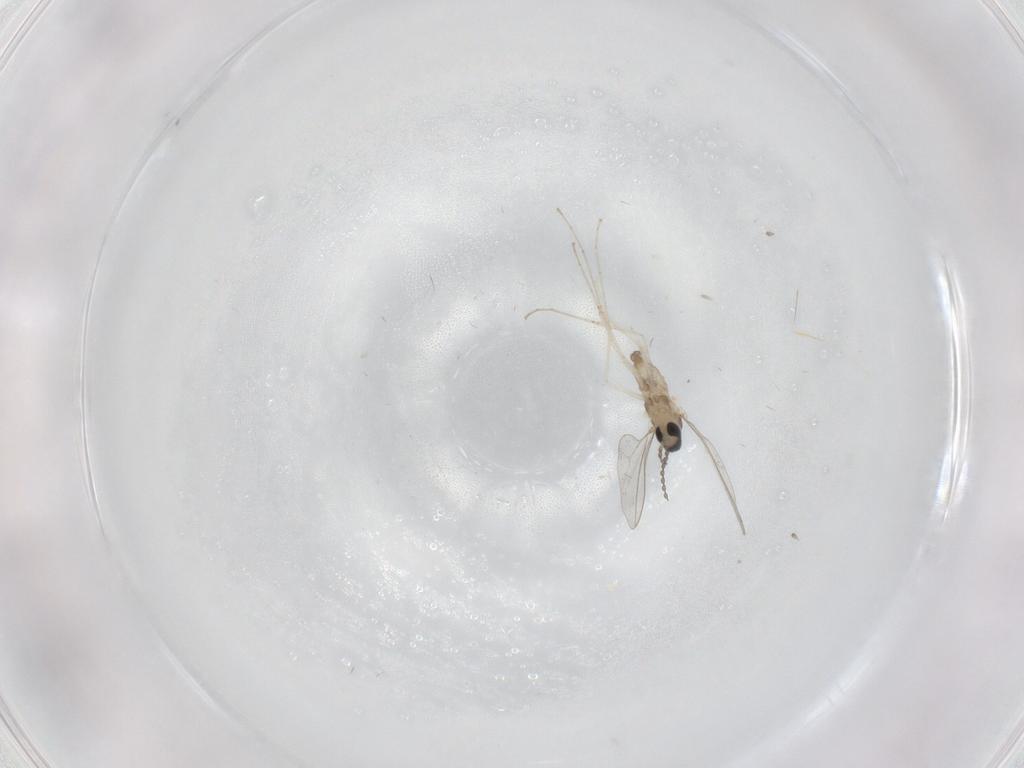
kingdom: Animalia
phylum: Arthropoda
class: Insecta
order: Diptera
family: Cecidomyiidae
